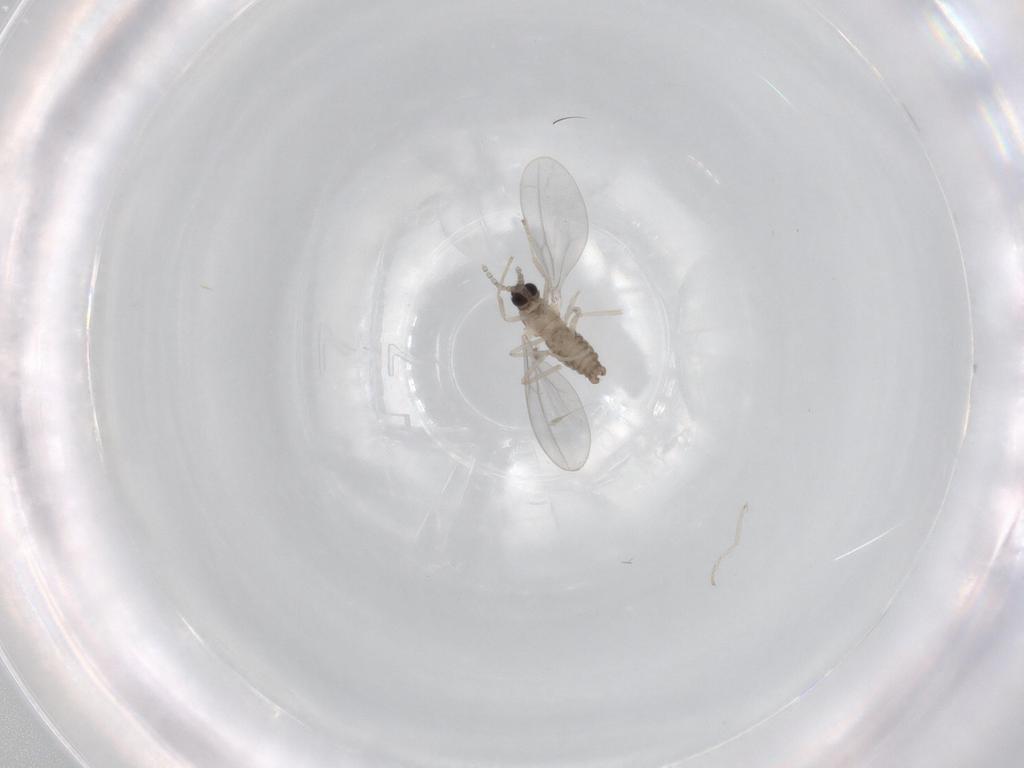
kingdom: Animalia
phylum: Arthropoda
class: Insecta
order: Diptera
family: Cecidomyiidae
